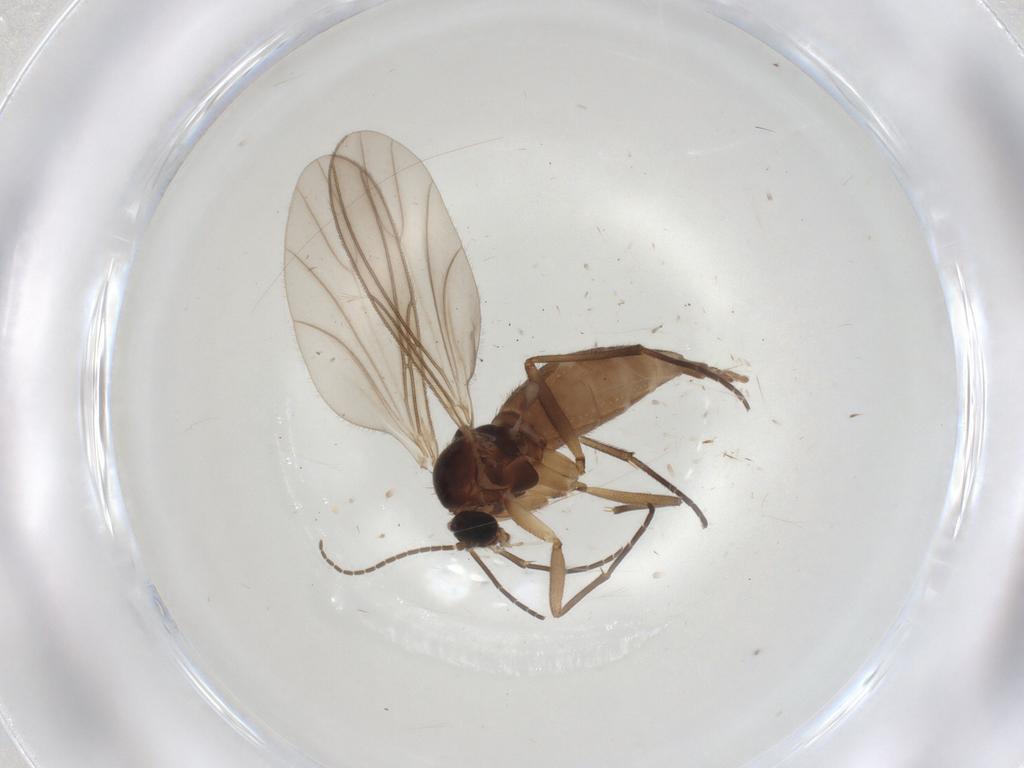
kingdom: Animalia
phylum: Arthropoda
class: Insecta
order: Diptera
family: Sciaridae
